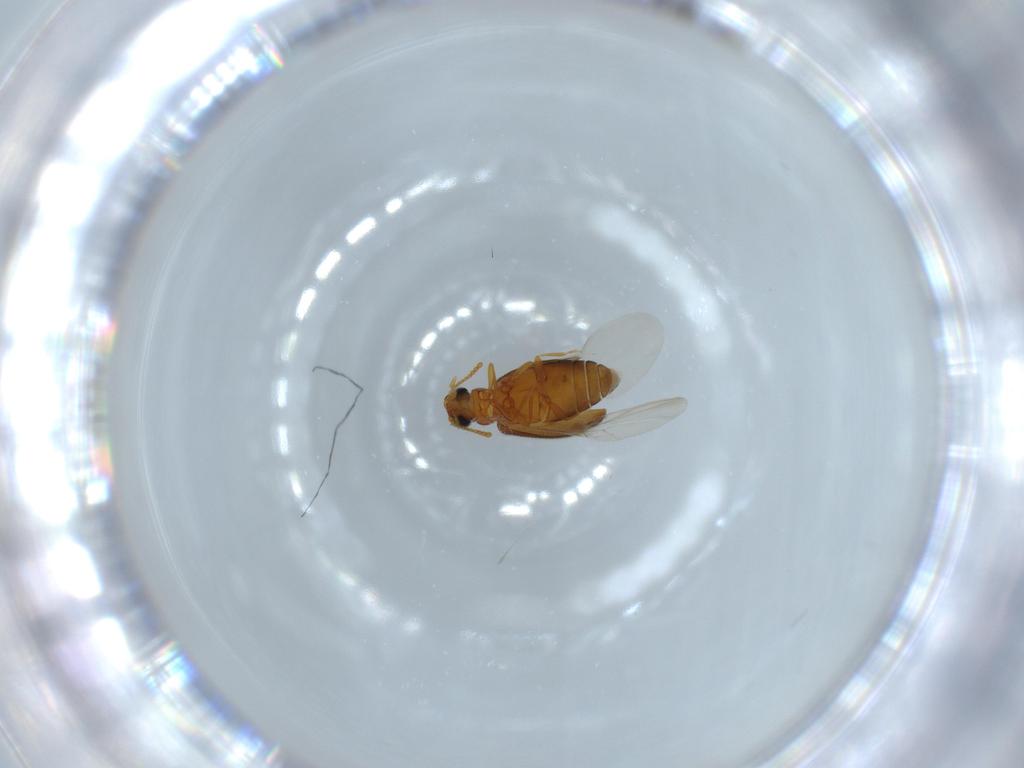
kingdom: Animalia
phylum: Arthropoda
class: Insecta
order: Coleoptera
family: Aderidae
